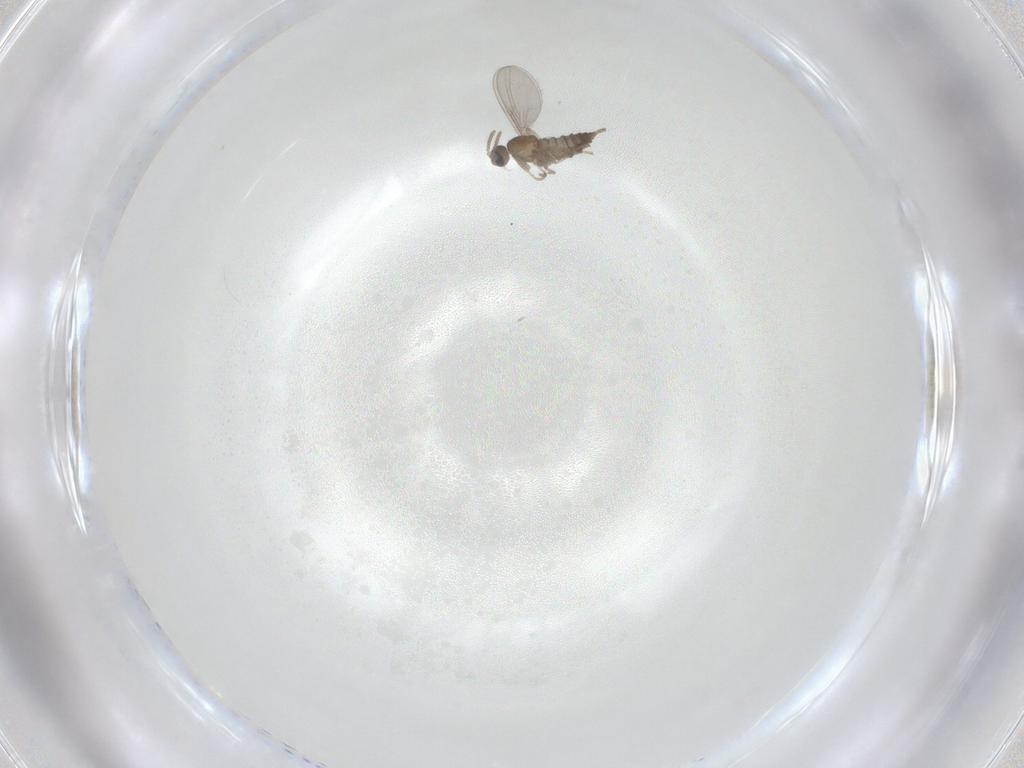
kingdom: Animalia
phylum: Arthropoda
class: Insecta
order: Diptera
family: Cecidomyiidae
